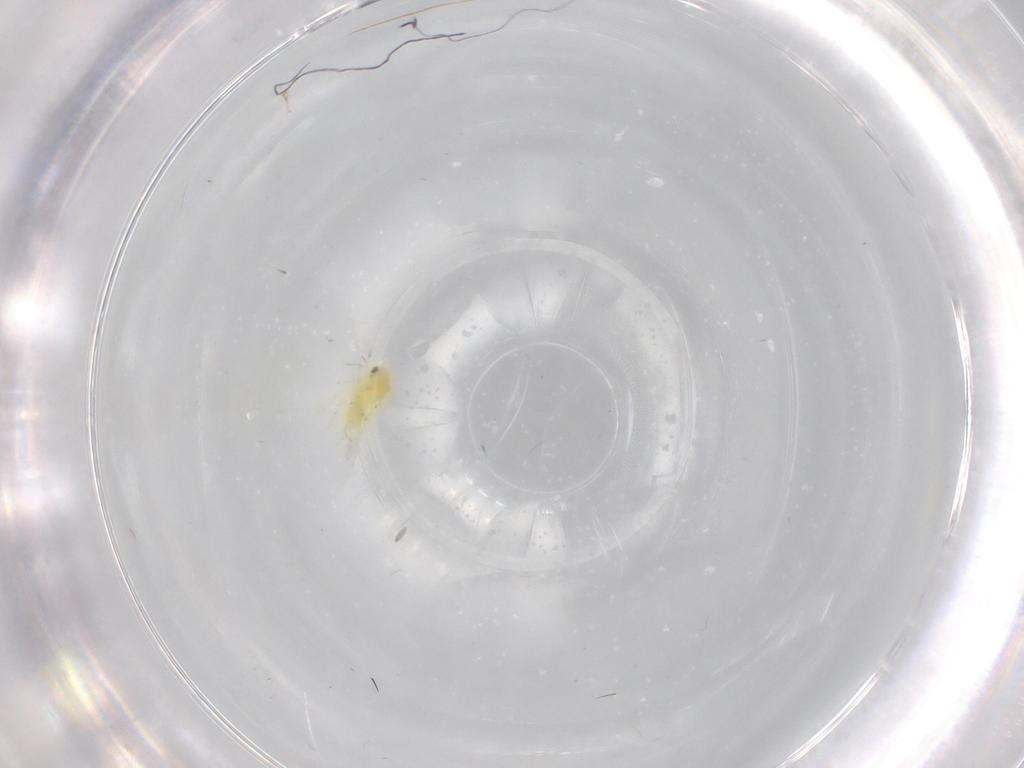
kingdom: Animalia
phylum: Arthropoda
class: Insecta
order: Hemiptera
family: Aleyrodidae
